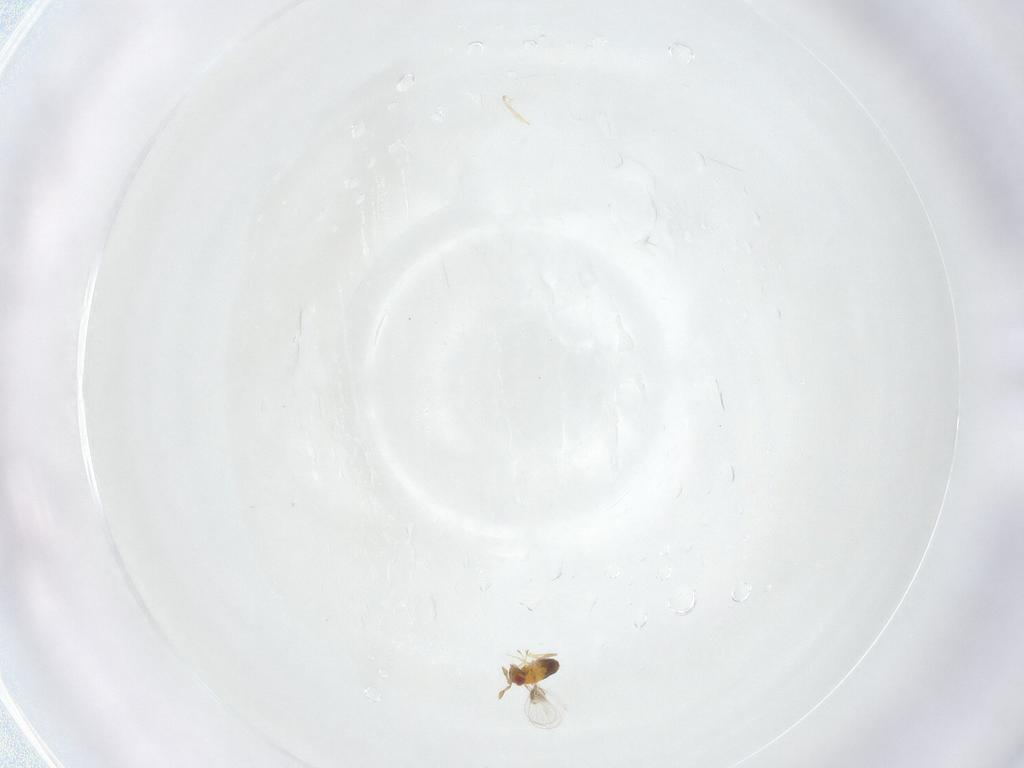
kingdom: Animalia
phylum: Arthropoda
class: Insecta
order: Hymenoptera
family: Trichogrammatidae
